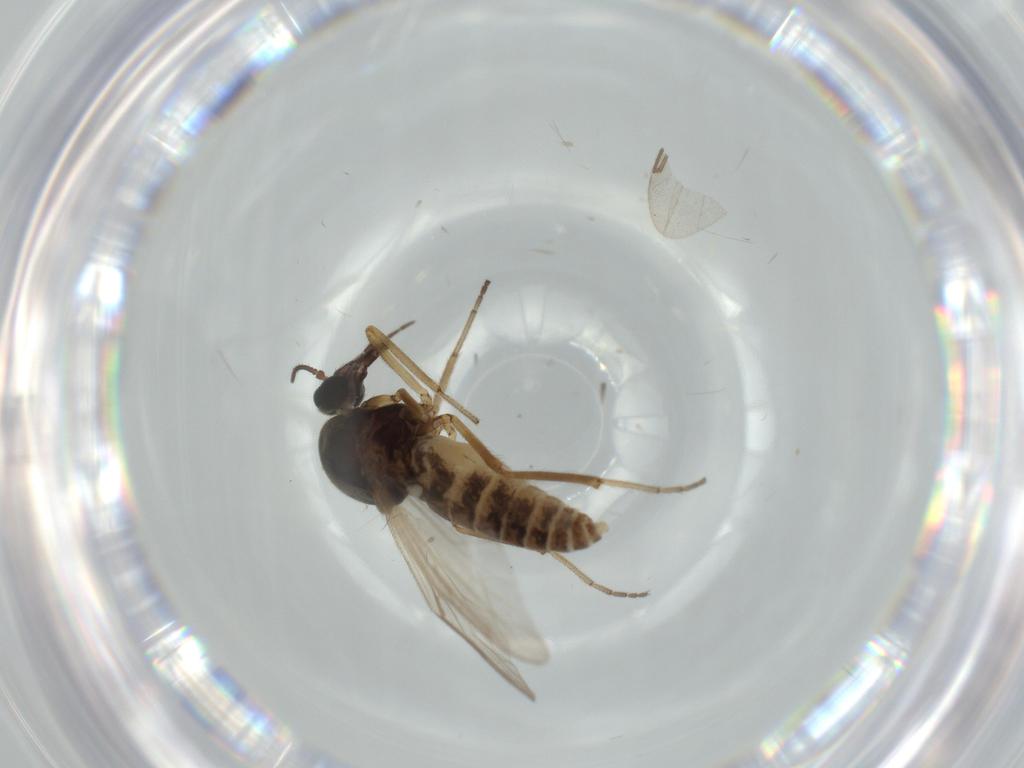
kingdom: Animalia
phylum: Arthropoda
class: Insecta
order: Diptera
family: Ceratopogonidae
